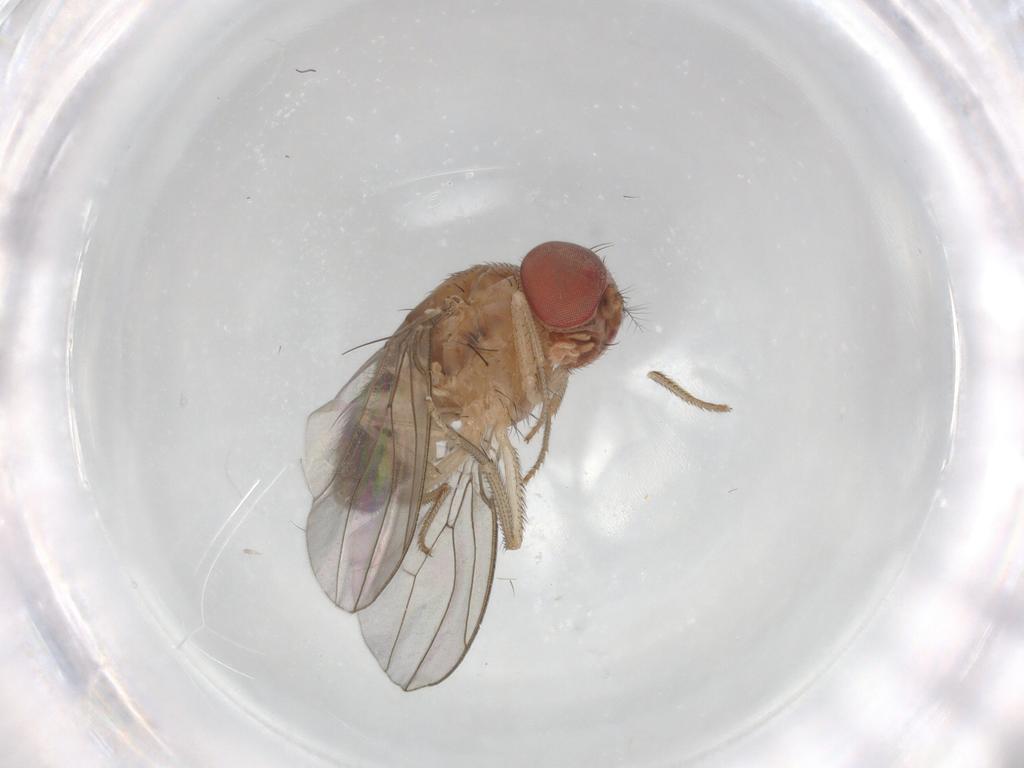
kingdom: Animalia
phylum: Arthropoda
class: Insecta
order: Diptera
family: Drosophilidae
